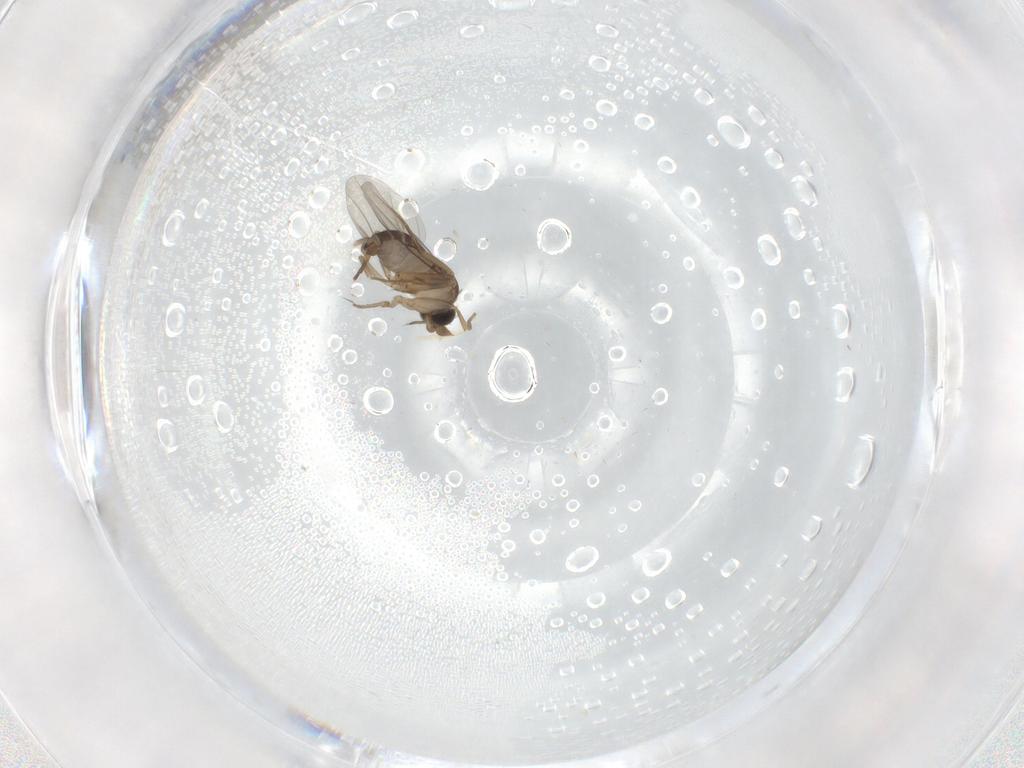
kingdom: Animalia
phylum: Arthropoda
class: Insecta
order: Diptera
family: Phoridae
